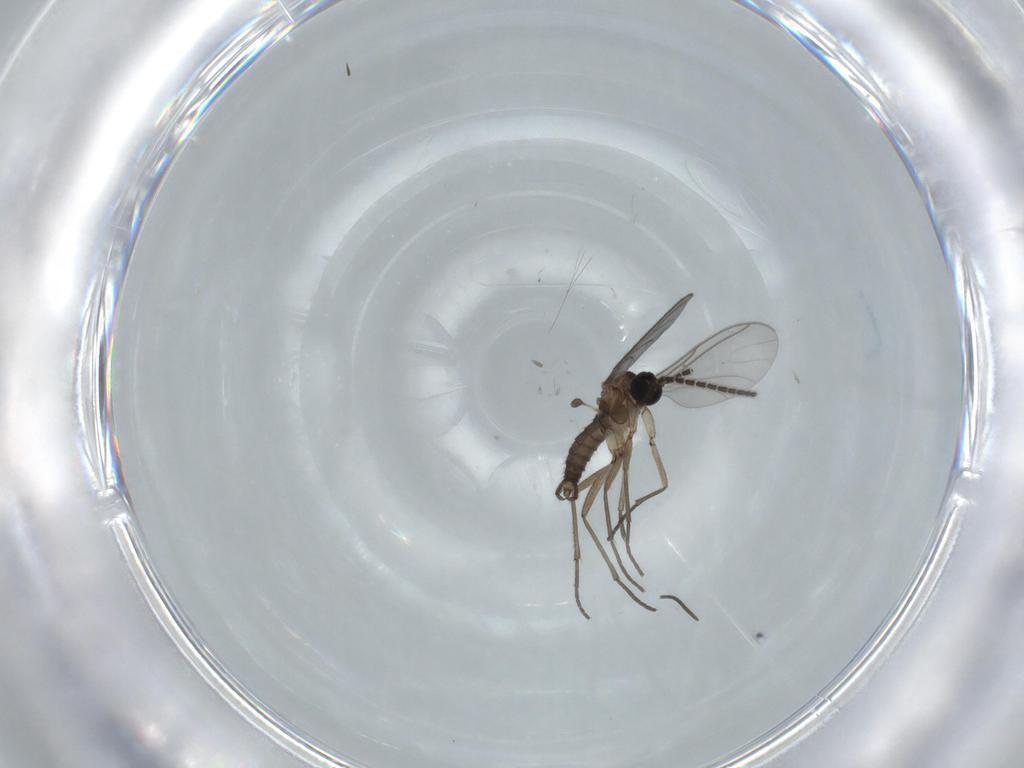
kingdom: Animalia
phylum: Arthropoda
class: Insecta
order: Diptera
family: Sciaridae
